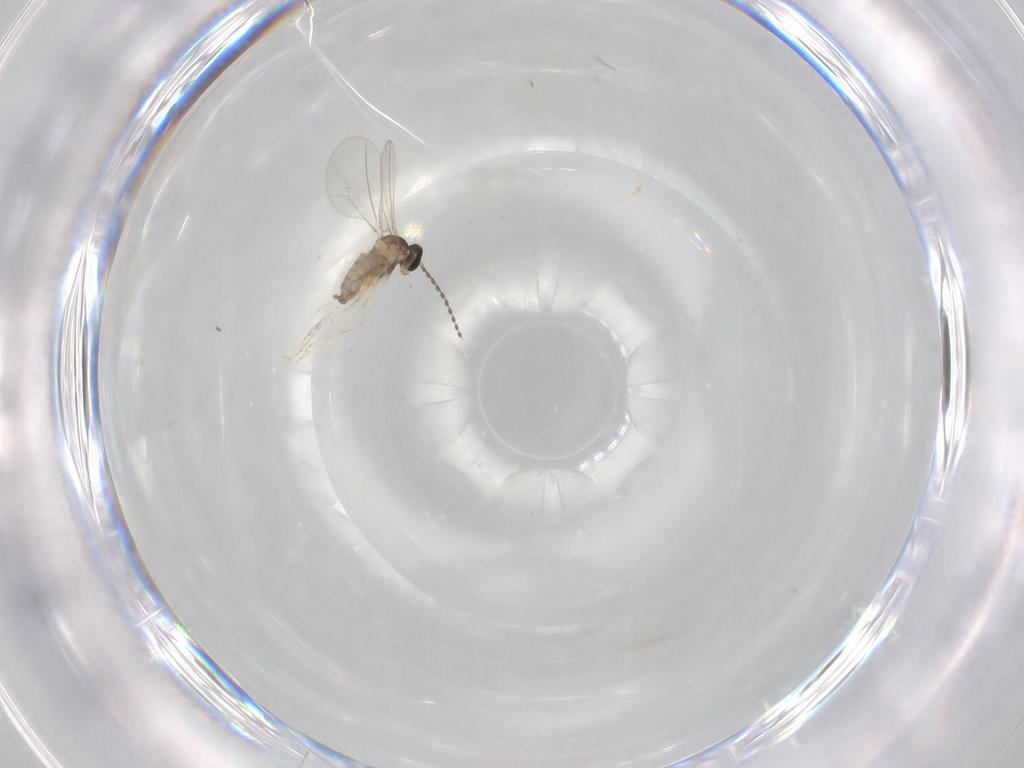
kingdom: Animalia
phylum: Arthropoda
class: Insecta
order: Diptera
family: Cecidomyiidae
